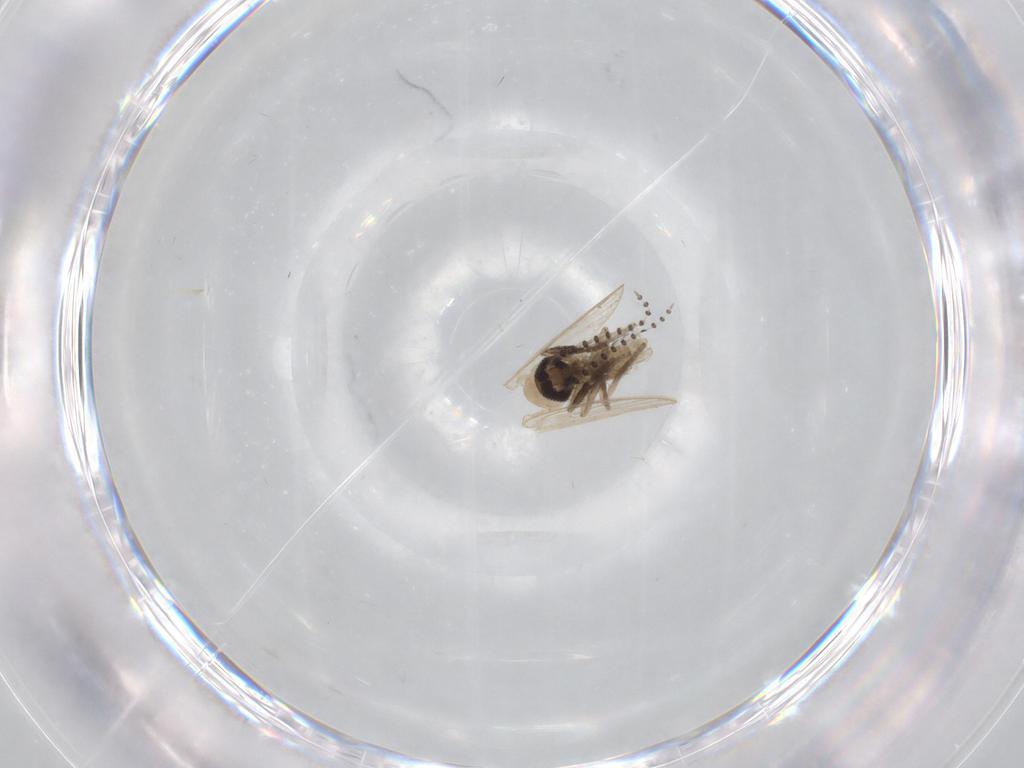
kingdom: Animalia
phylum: Arthropoda
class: Insecta
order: Diptera
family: Psychodidae
